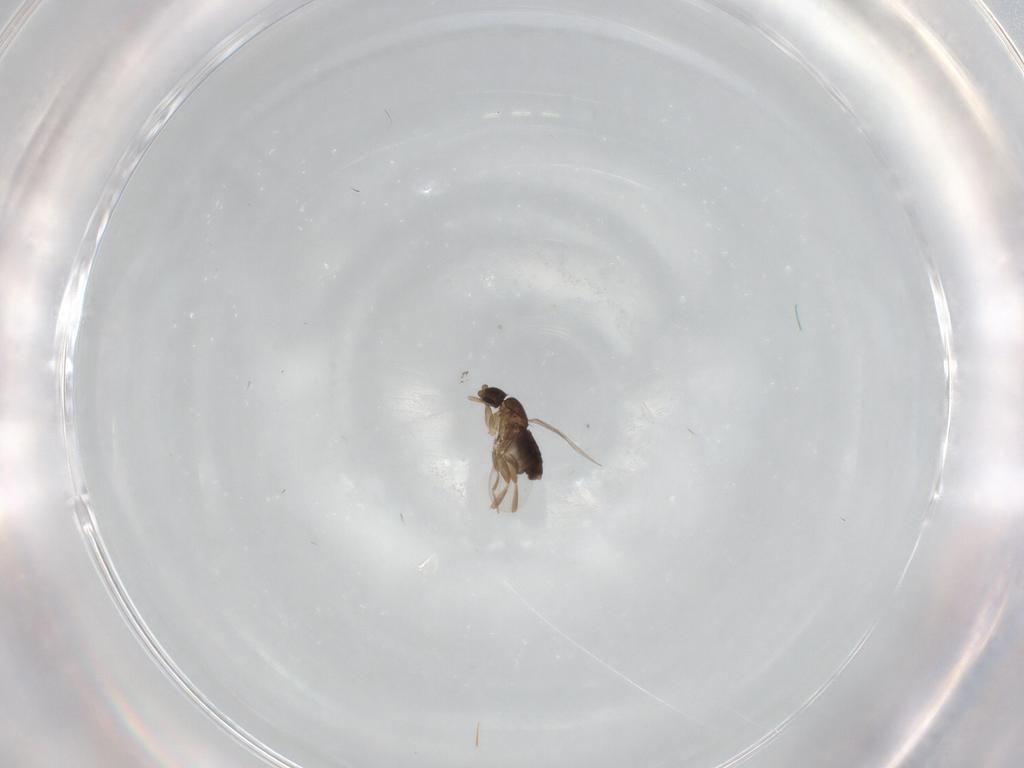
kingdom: Animalia
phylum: Arthropoda
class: Insecta
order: Diptera
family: Phoridae
